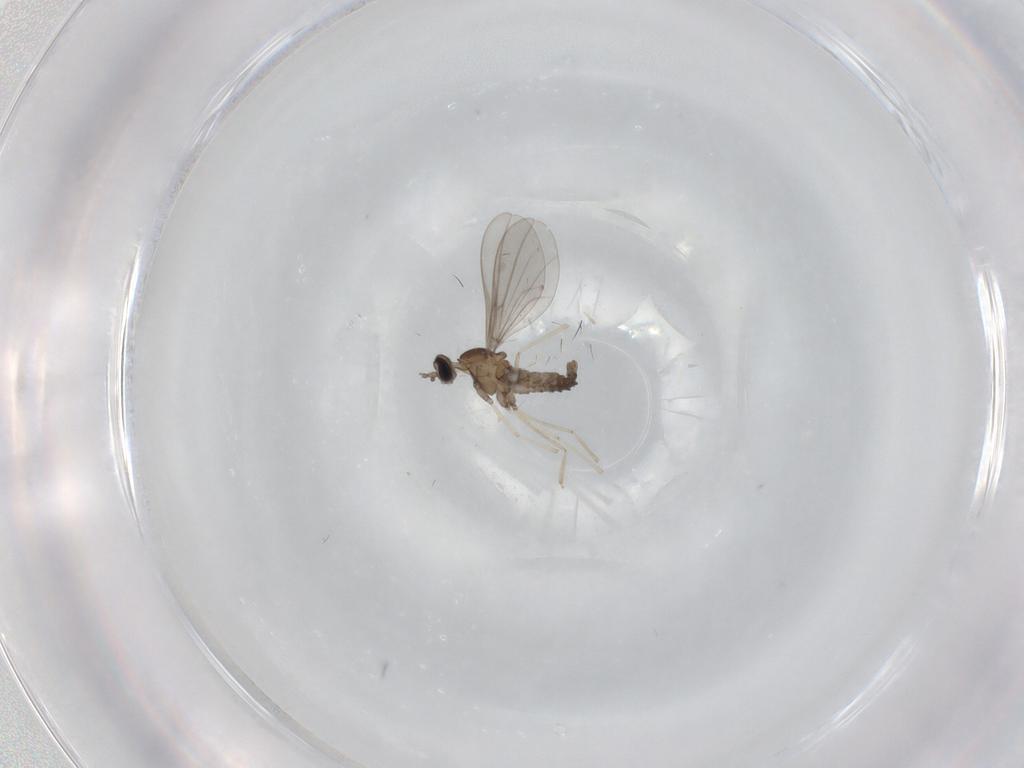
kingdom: Animalia
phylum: Arthropoda
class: Insecta
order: Diptera
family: Cecidomyiidae
